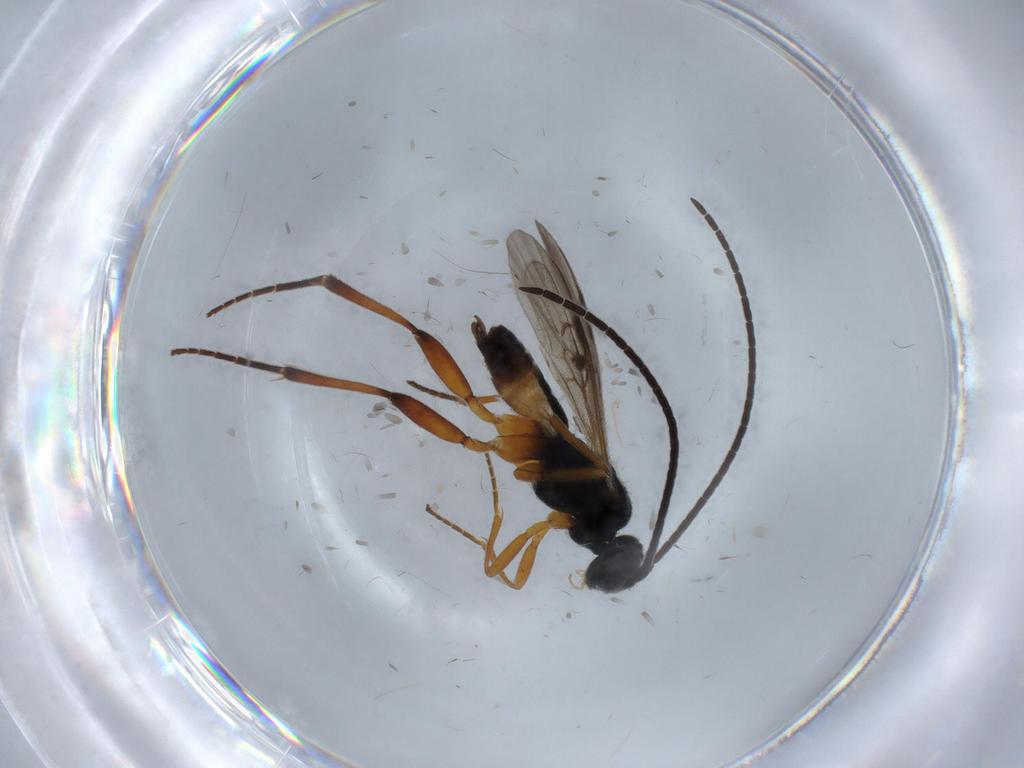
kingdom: Animalia
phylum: Arthropoda
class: Insecta
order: Hymenoptera
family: Braconidae
